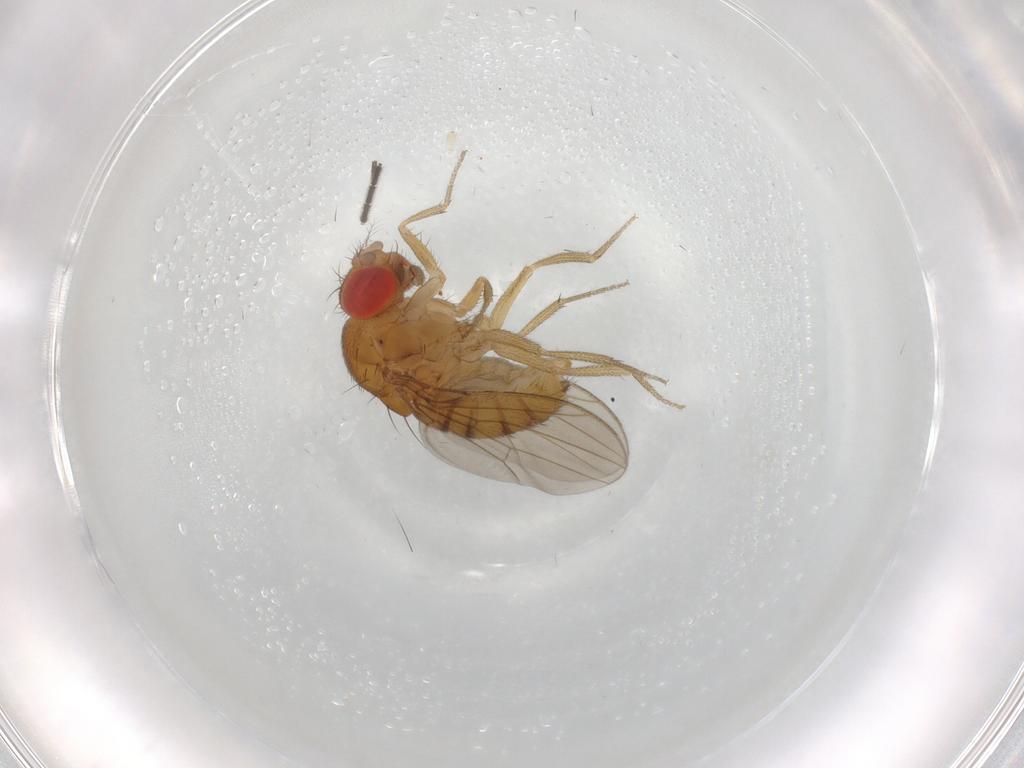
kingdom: Animalia
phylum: Arthropoda
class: Insecta
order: Diptera
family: Drosophilidae
